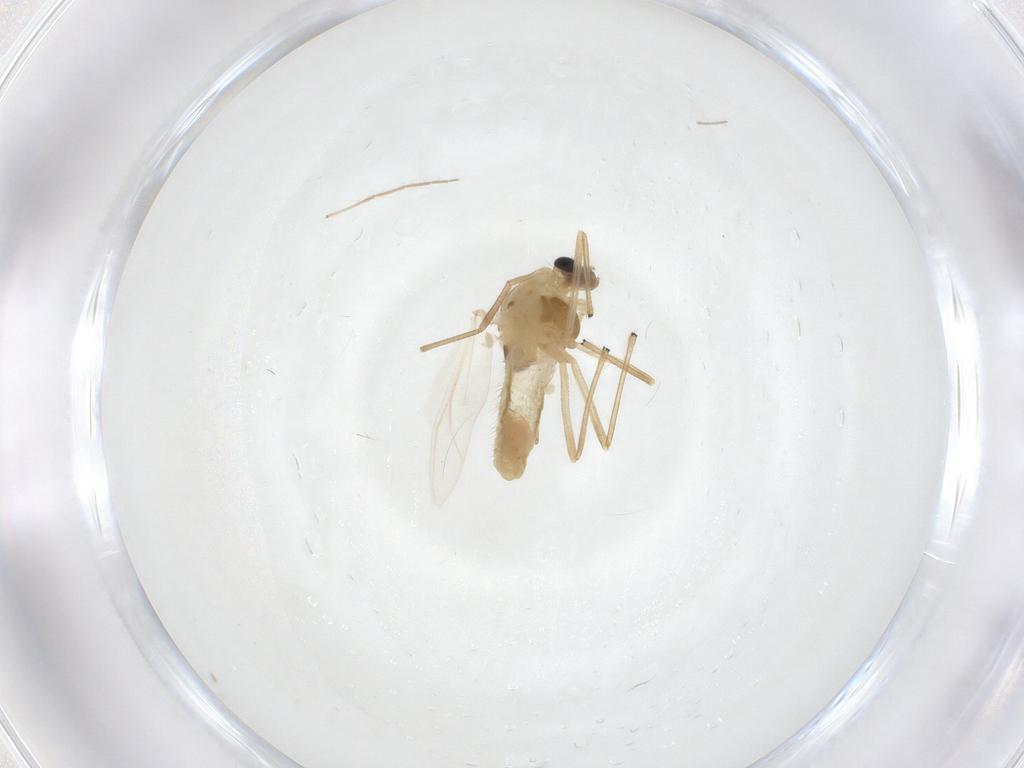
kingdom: Animalia
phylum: Arthropoda
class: Insecta
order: Diptera
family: Chironomidae
